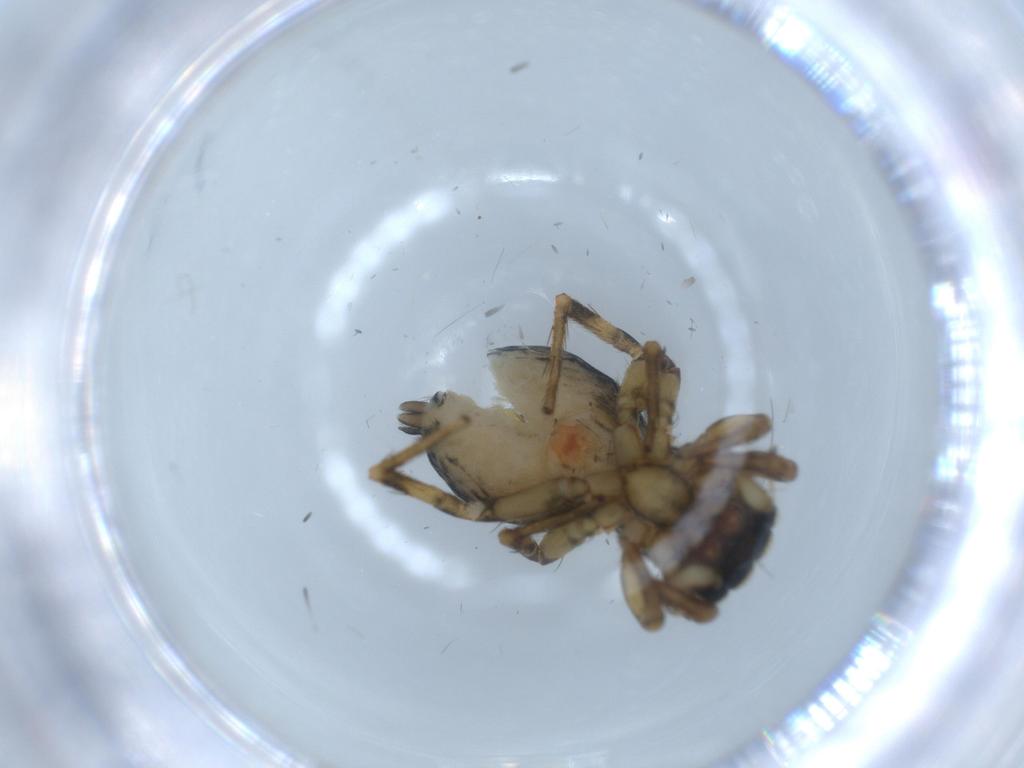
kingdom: Animalia
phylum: Arthropoda
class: Arachnida
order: Araneae
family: Salticidae
